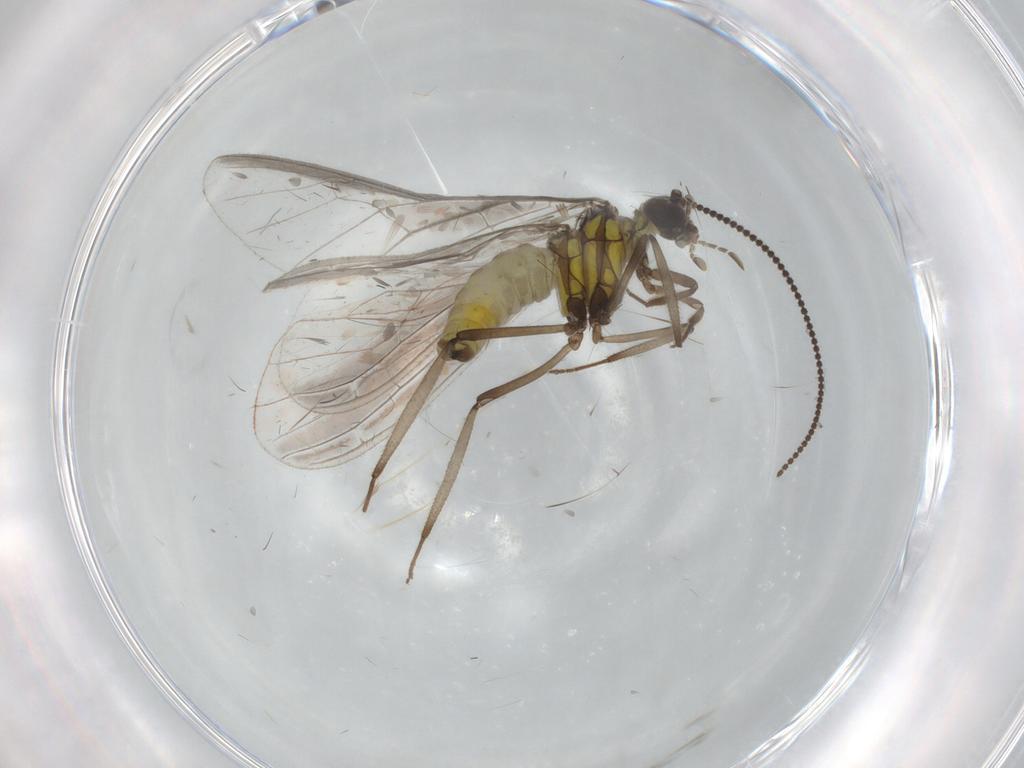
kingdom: Animalia
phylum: Arthropoda
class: Insecta
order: Neuroptera
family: Coniopterygidae
